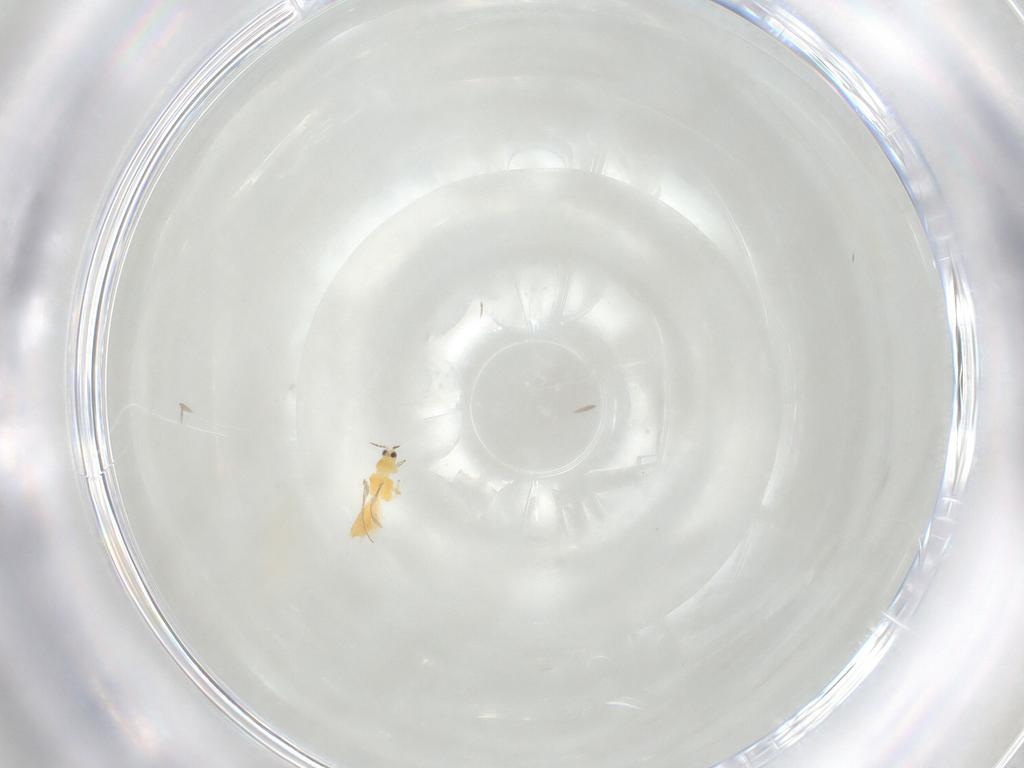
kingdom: Animalia
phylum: Arthropoda
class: Insecta
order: Thysanoptera
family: Thripidae
